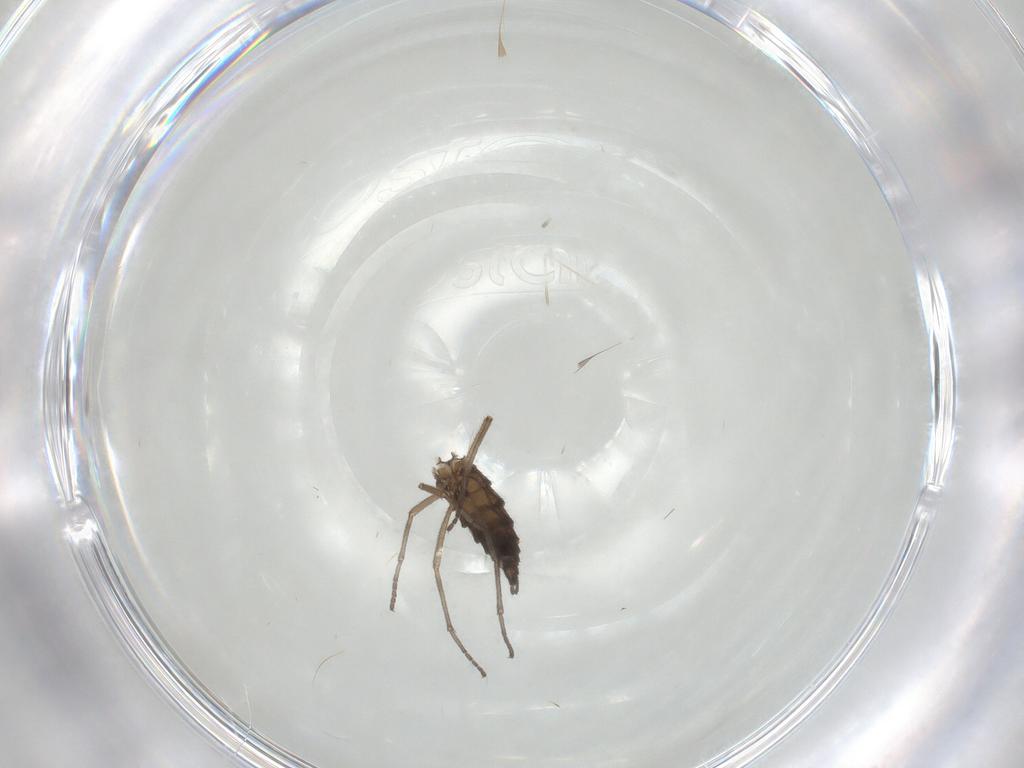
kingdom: Animalia
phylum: Arthropoda
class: Insecta
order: Diptera
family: Sciaridae
